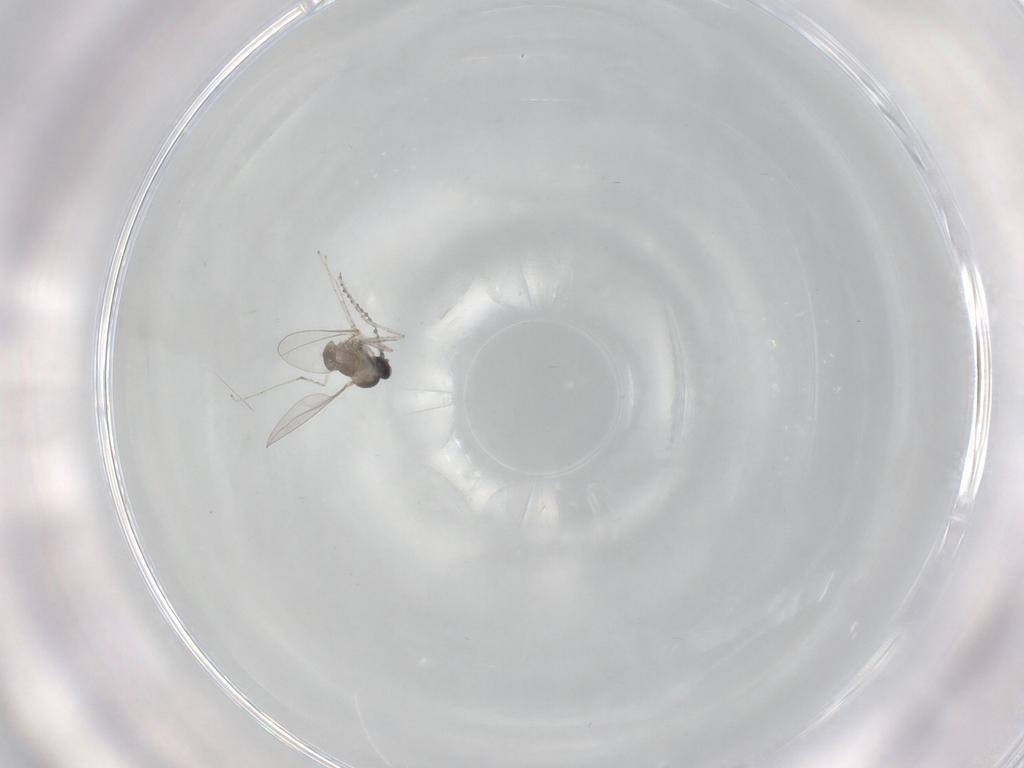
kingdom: Animalia
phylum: Arthropoda
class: Insecta
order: Diptera
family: Cecidomyiidae
